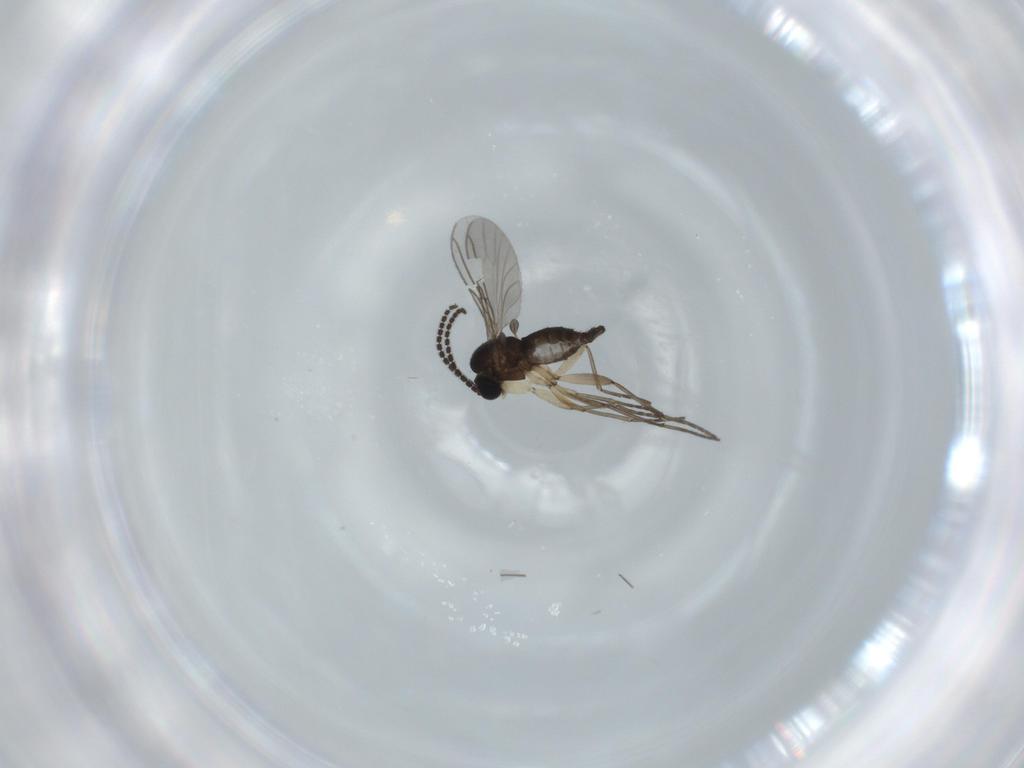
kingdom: Animalia
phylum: Arthropoda
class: Insecta
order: Diptera
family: Sciaridae
